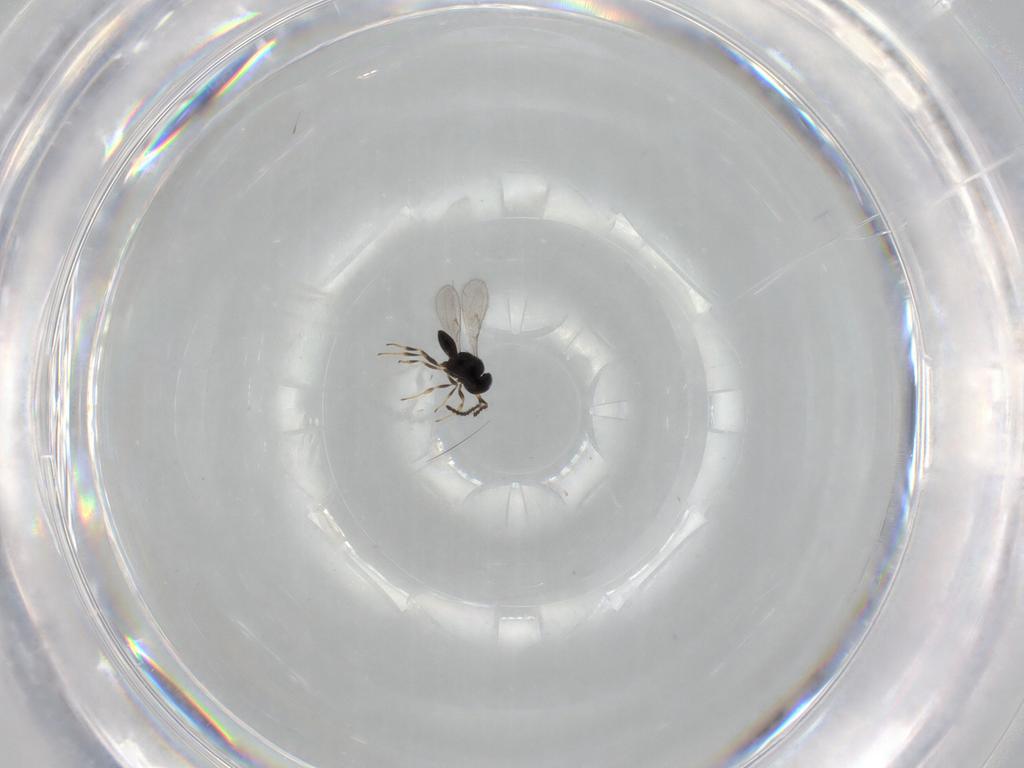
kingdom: Animalia
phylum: Arthropoda
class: Insecta
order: Hymenoptera
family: Scelionidae
